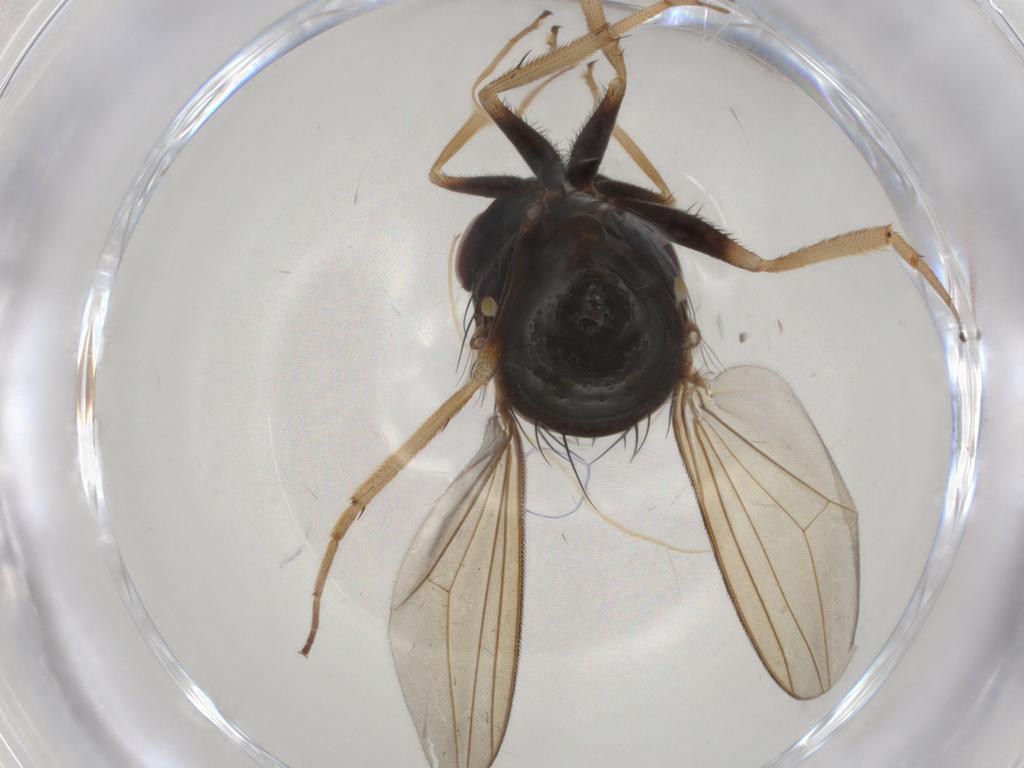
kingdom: Animalia
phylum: Arthropoda
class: Insecta
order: Diptera
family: Dolichopodidae
